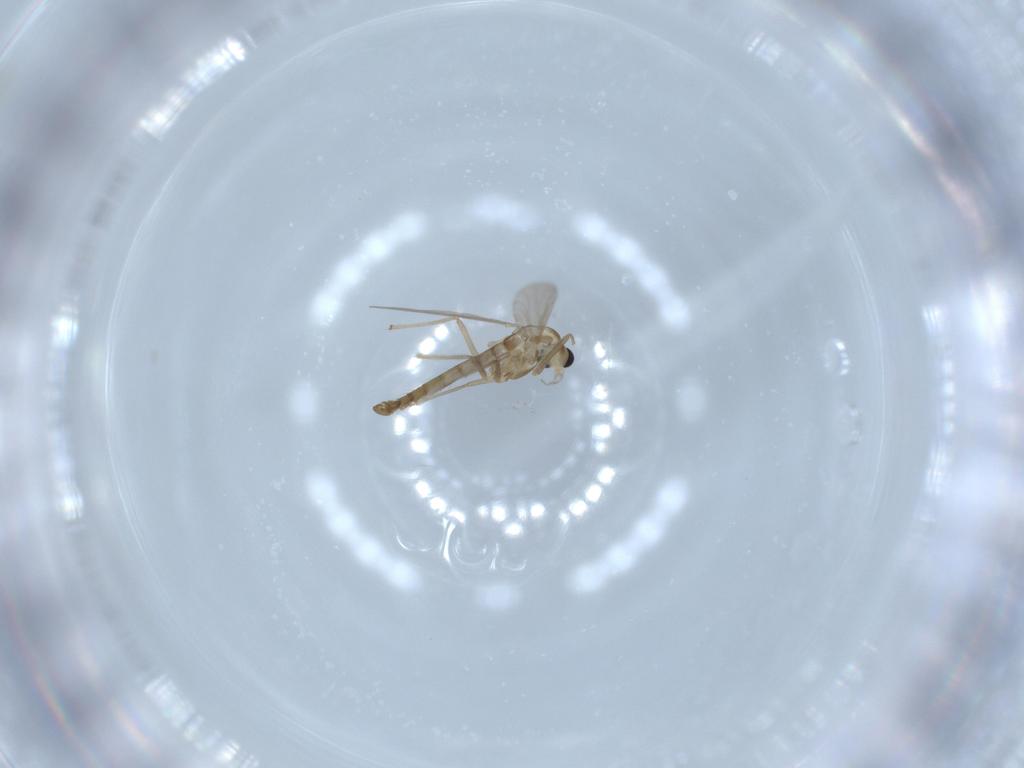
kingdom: Animalia
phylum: Arthropoda
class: Insecta
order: Diptera
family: Chironomidae
